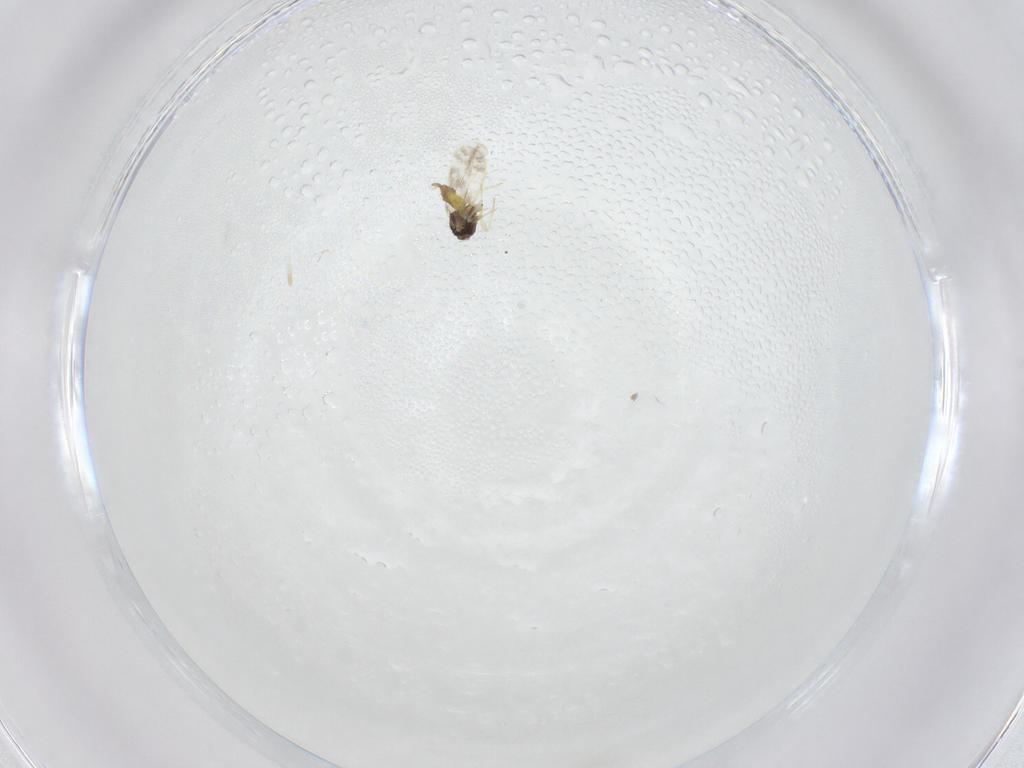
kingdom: Animalia
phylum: Arthropoda
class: Insecta
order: Hemiptera
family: Aleyrodidae
